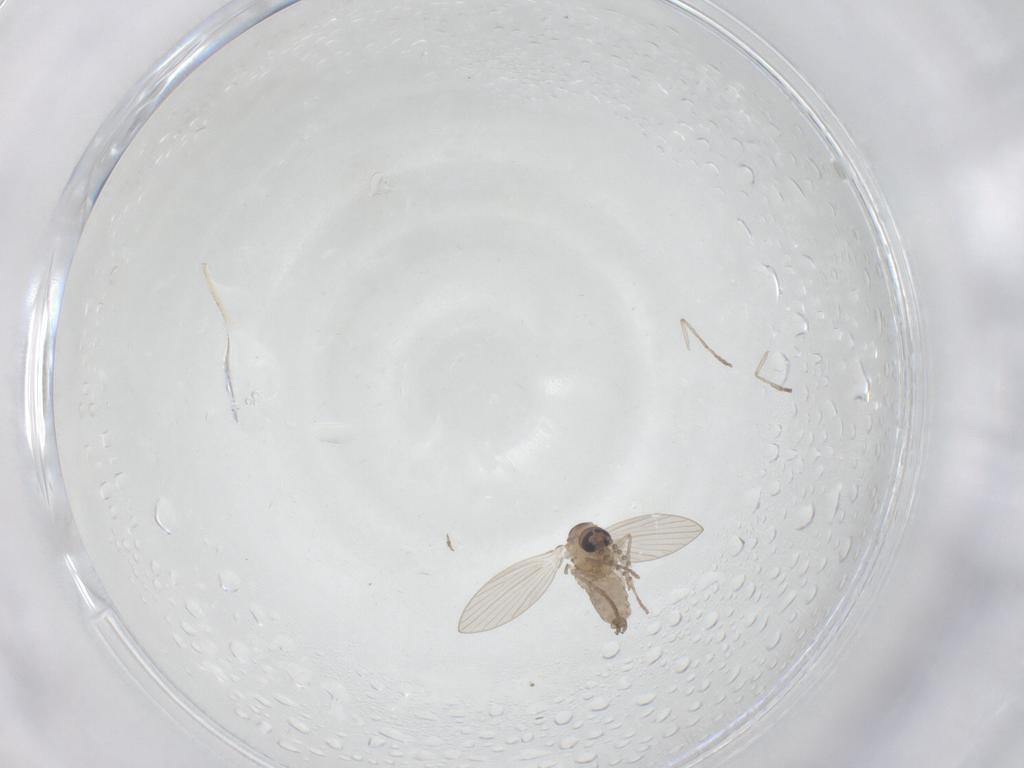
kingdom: Animalia
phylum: Arthropoda
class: Insecta
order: Diptera
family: Psychodidae
